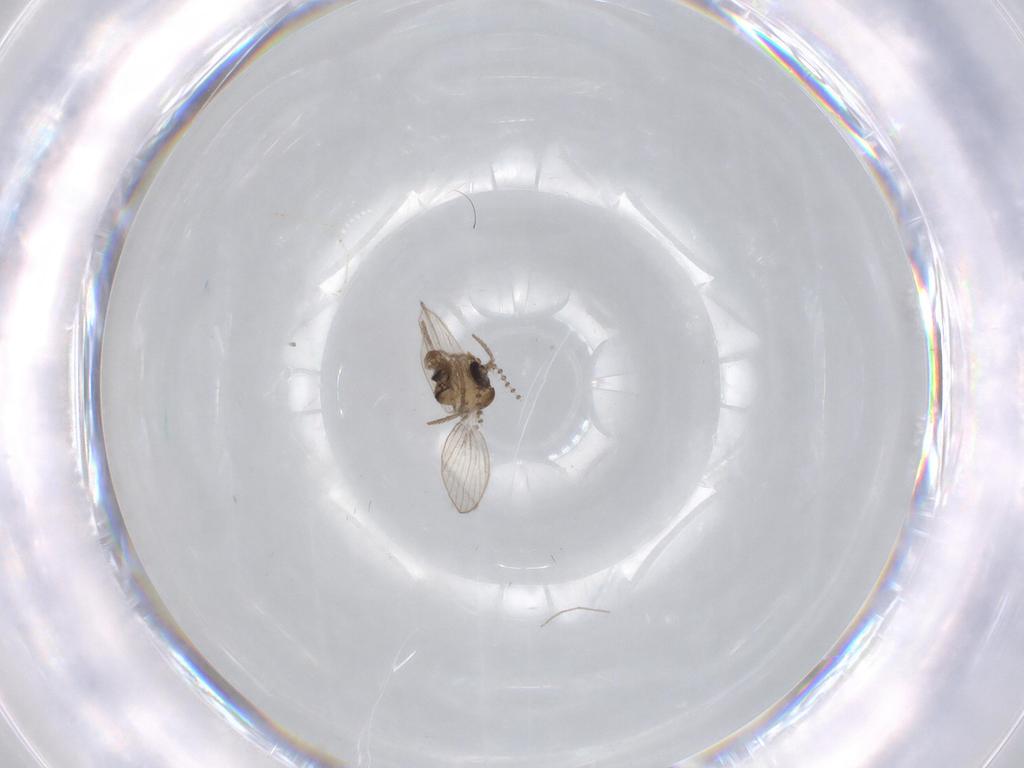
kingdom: Animalia
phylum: Arthropoda
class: Insecta
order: Diptera
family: Psychodidae
